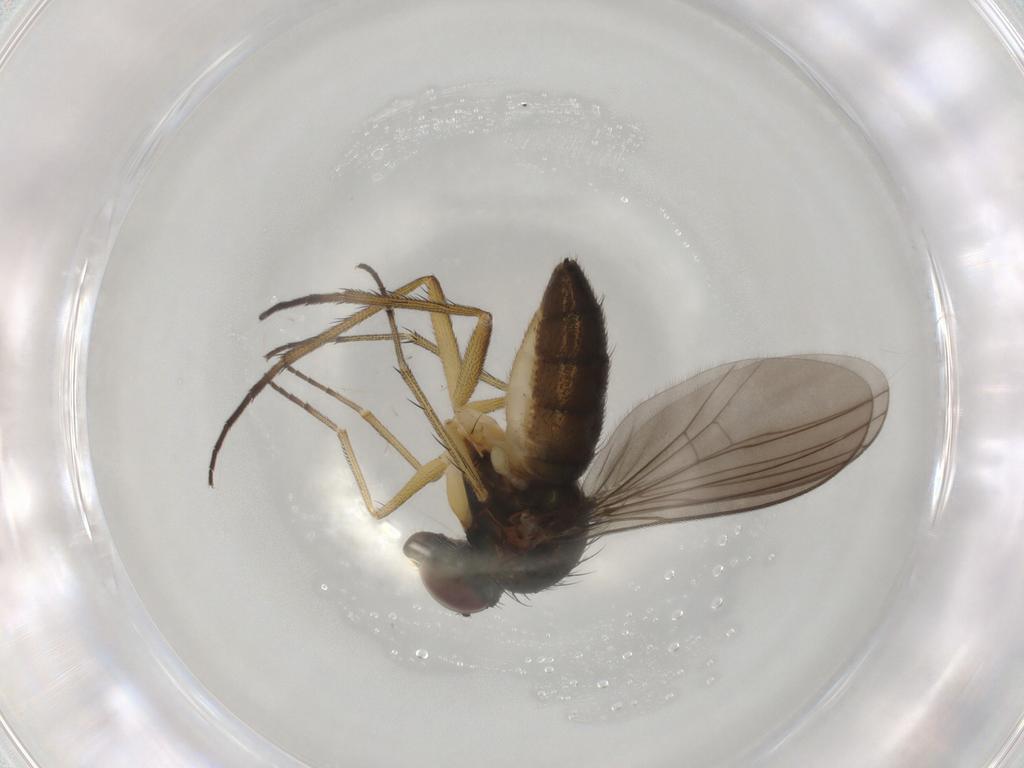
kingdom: Animalia
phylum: Arthropoda
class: Insecta
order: Diptera
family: Dolichopodidae
